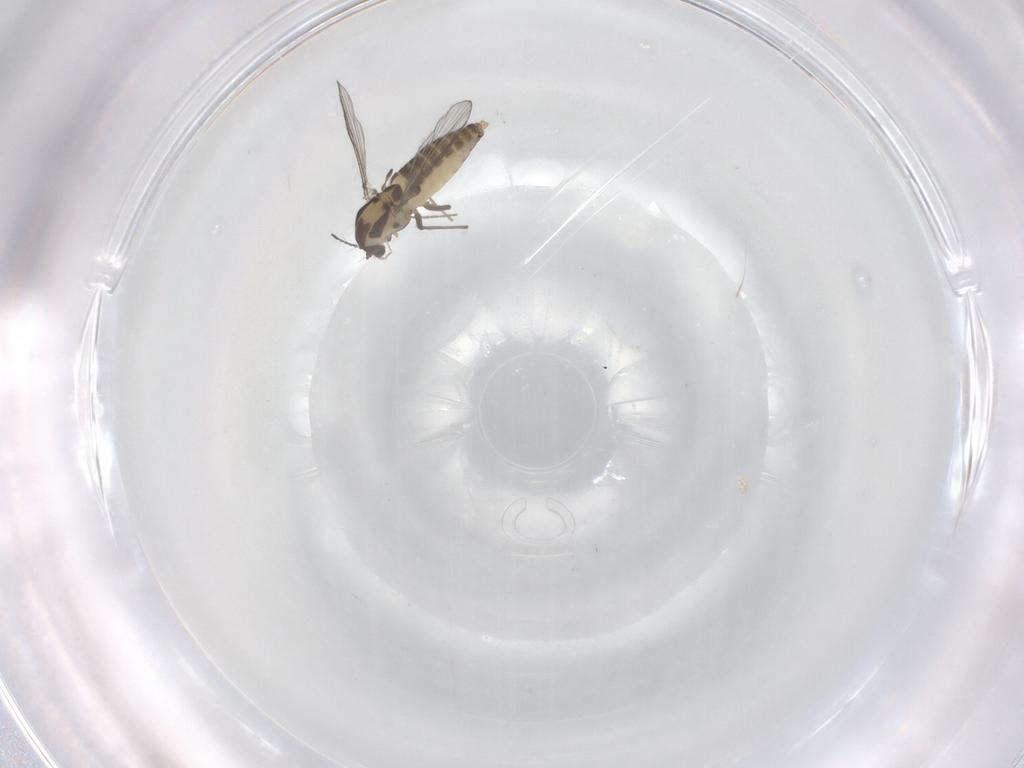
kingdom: Animalia
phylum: Arthropoda
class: Insecta
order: Diptera
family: Chironomidae
